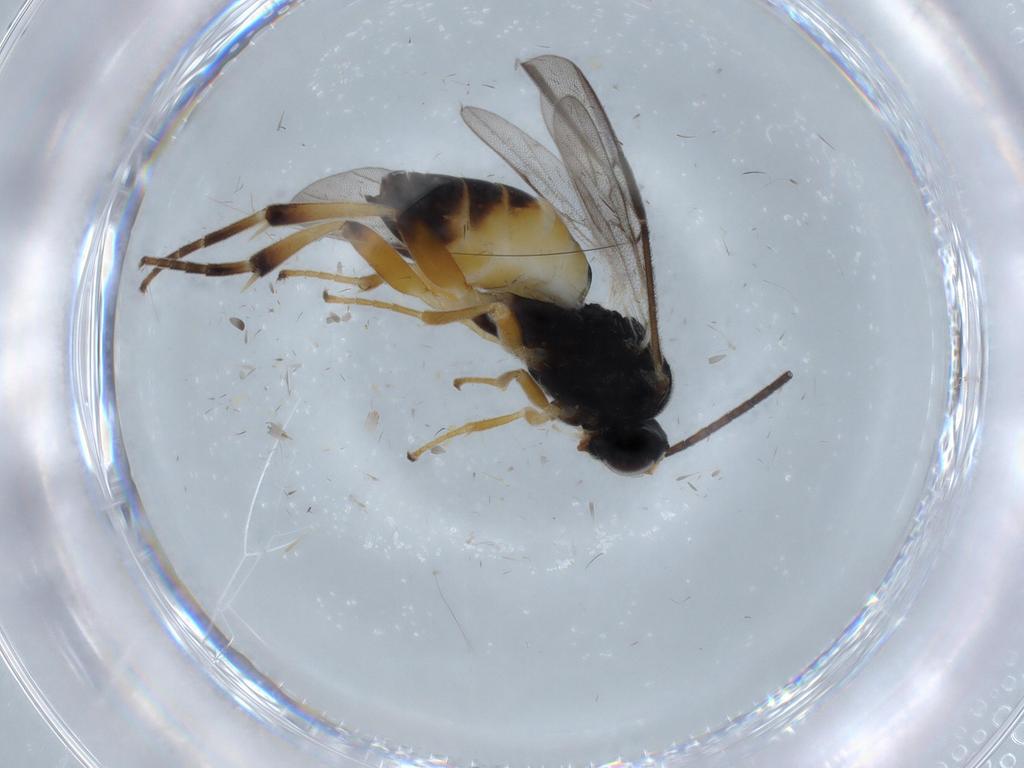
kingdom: Animalia
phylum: Arthropoda
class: Insecta
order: Hymenoptera
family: Braconidae
